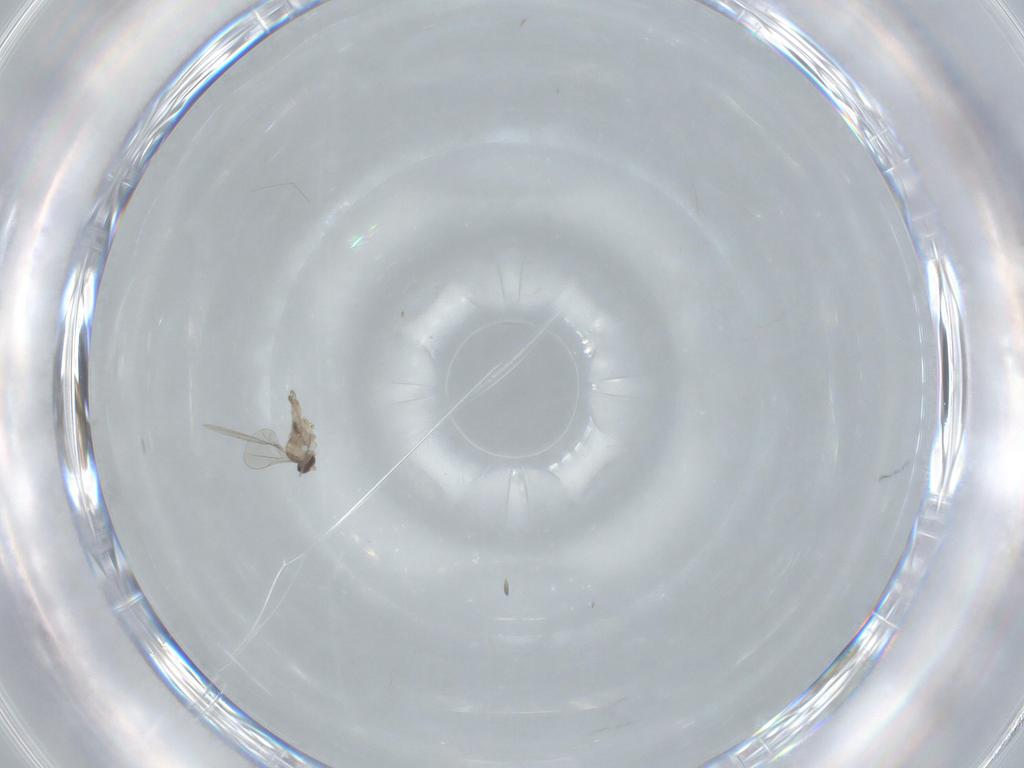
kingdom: Animalia
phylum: Arthropoda
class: Insecta
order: Diptera
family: Cecidomyiidae
